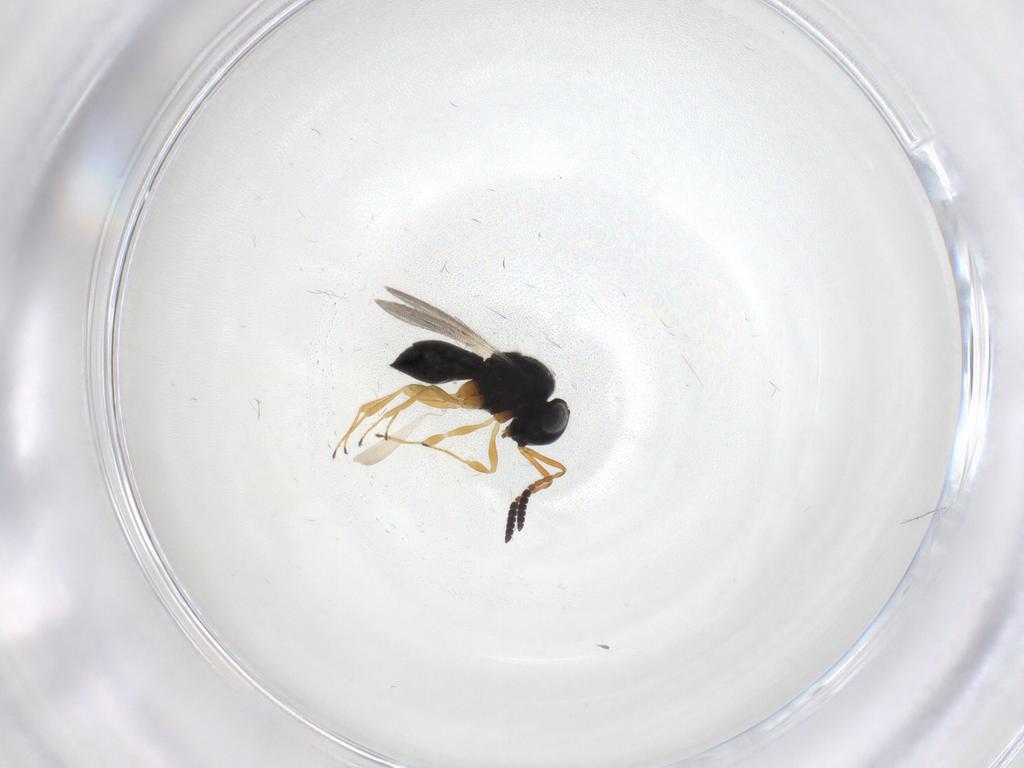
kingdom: Animalia
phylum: Arthropoda
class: Insecta
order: Hymenoptera
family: Scelionidae
